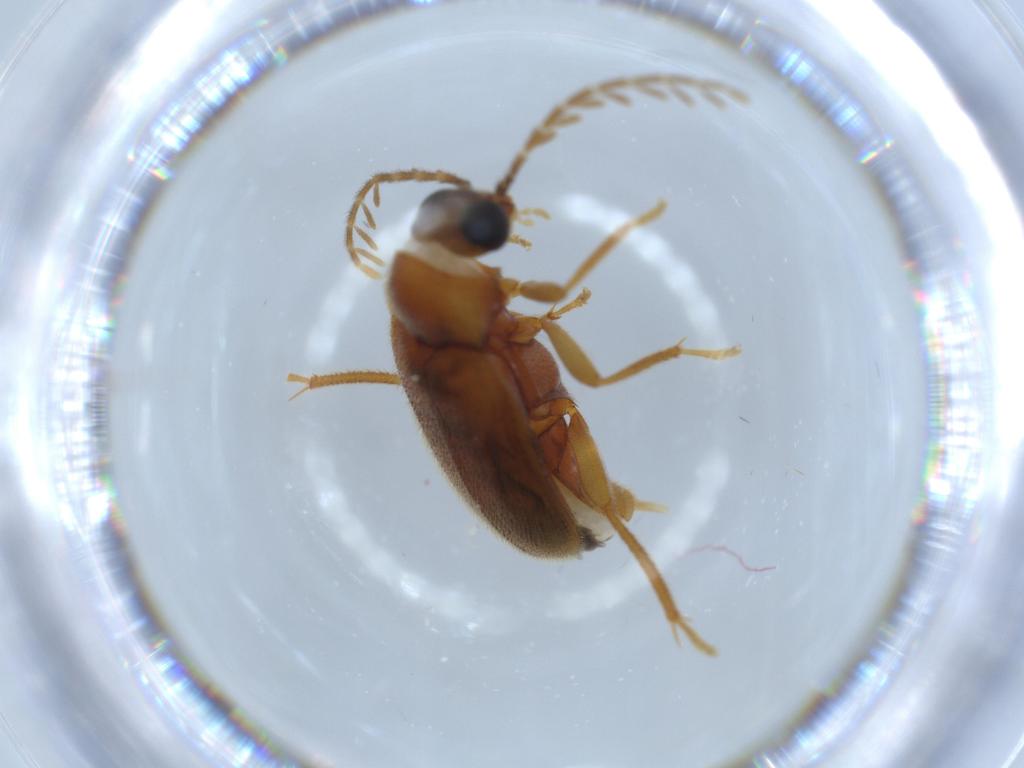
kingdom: Animalia
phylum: Arthropoda
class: Insecta
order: Coleoptera
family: Ptilodactylidae
